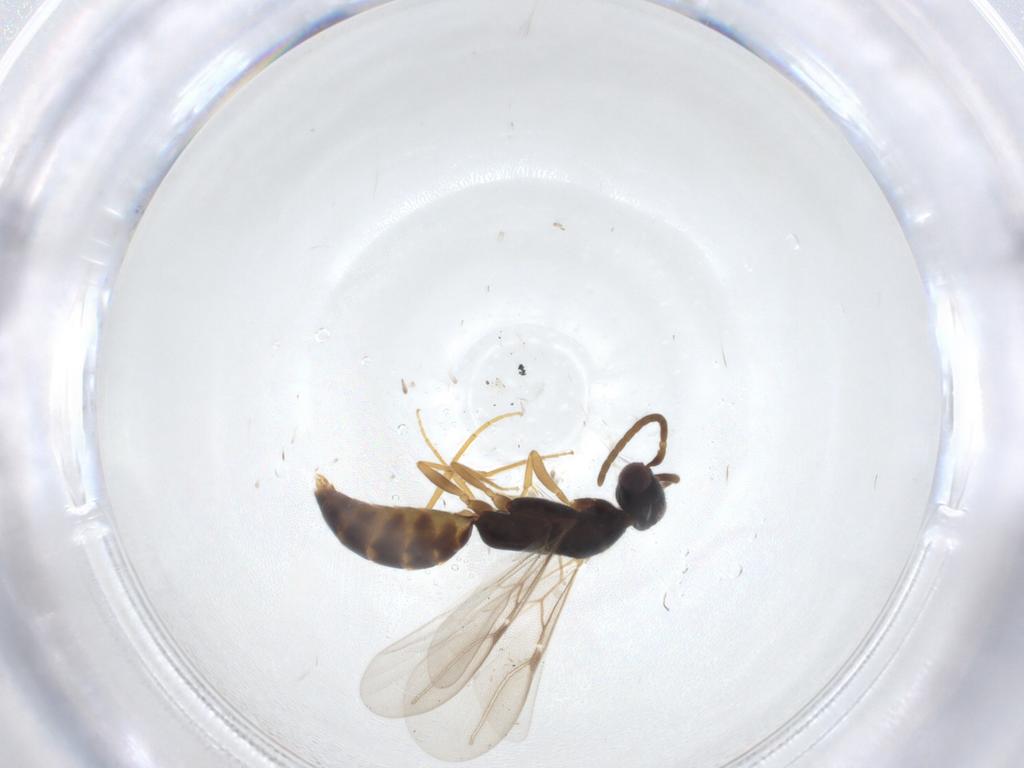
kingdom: Animalia
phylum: Arthropoda
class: Insecta
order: Hymenoptera
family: Bethylidae
